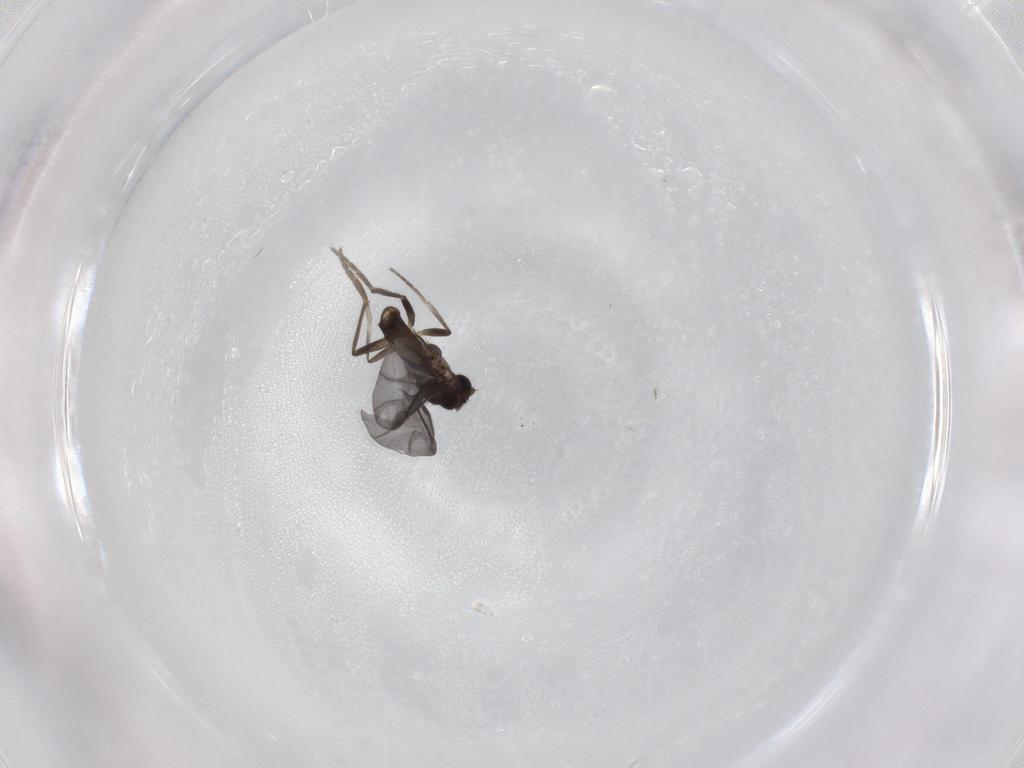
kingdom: Animalia
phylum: Arthropoda
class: Insecta
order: Diptera
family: Phoridae
